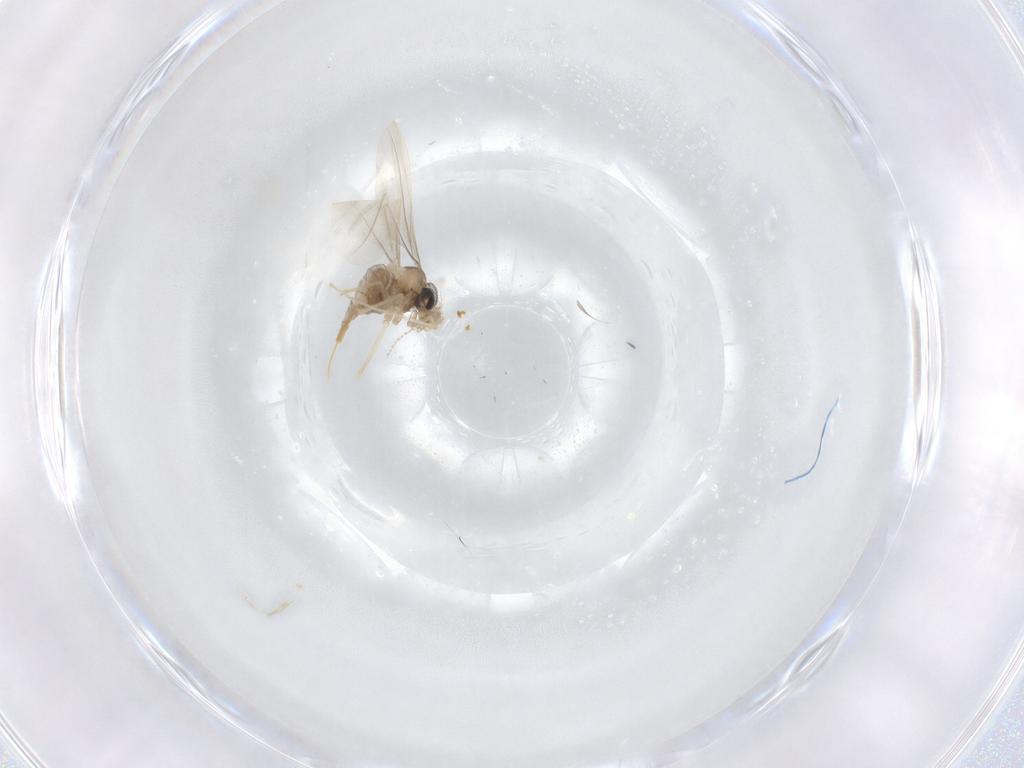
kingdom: Animalia
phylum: Arthropoda
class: Insecta
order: Diptera
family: Cecidomyiidae
